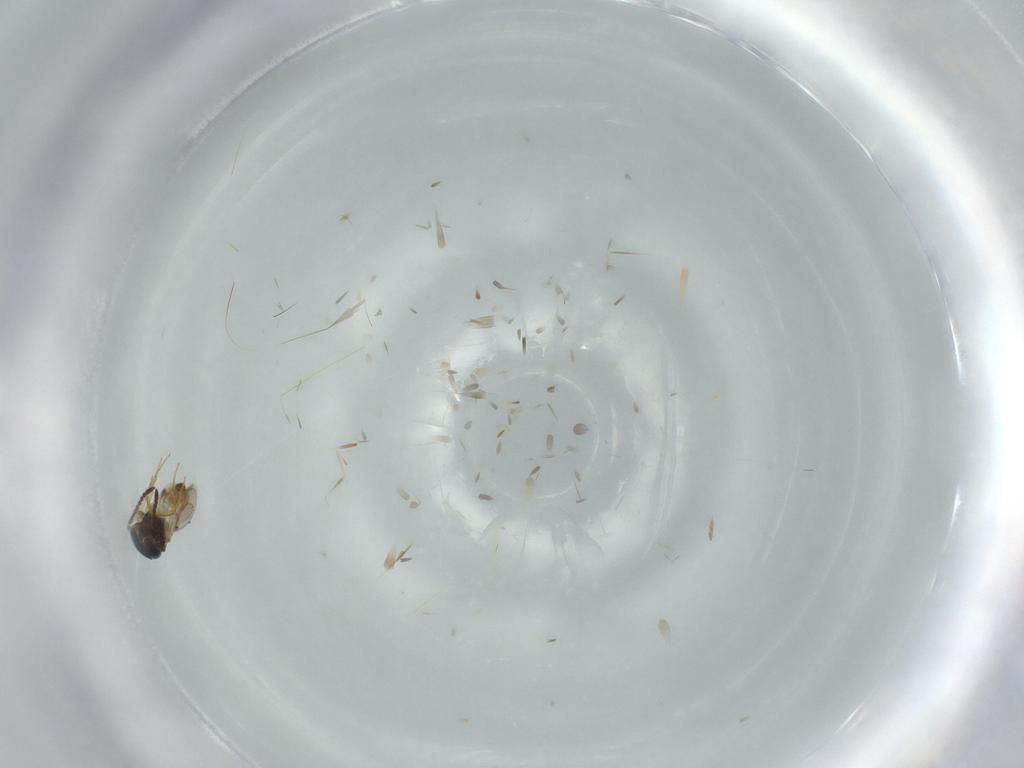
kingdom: Animalia
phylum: Arthropoda
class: Insecta
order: Hymenoptera
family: Scelionidae
